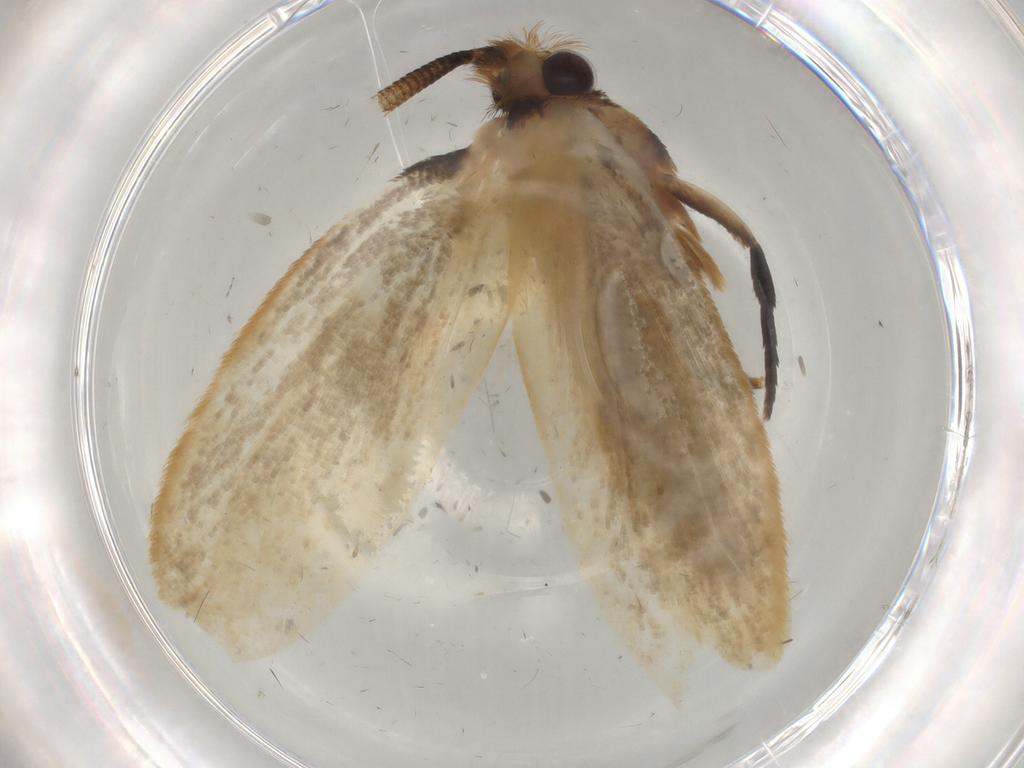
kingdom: Animalia
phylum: Arthropoda
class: Insecta
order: Lepidoptera
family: Tineidae
